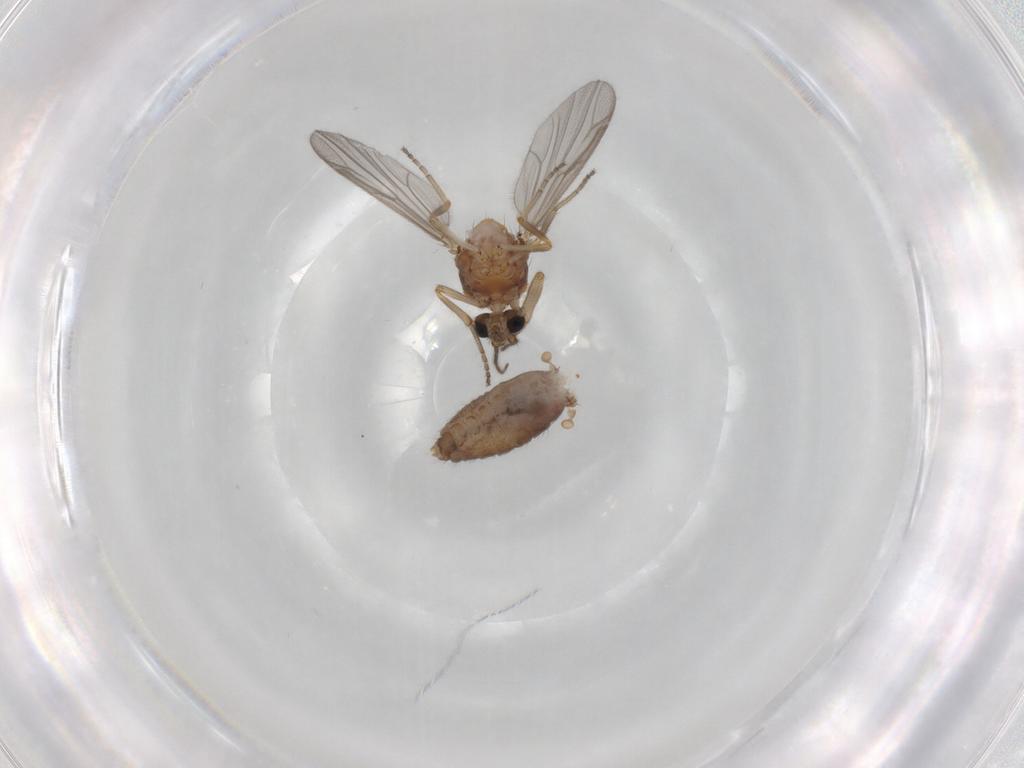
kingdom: Animalia
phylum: Arthropoda
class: Insecta
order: Diptera
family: Ceratopogonidae
